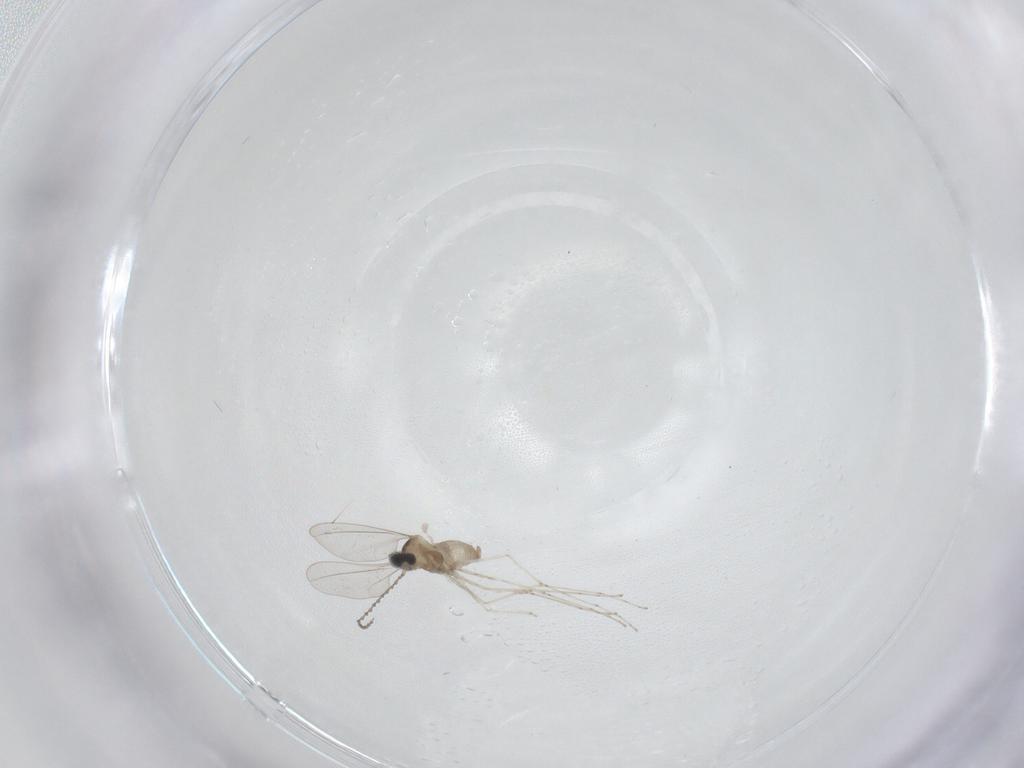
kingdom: Animalia
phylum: Arthropoda
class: Insecta
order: Diptera
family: Cecidomyiidae
